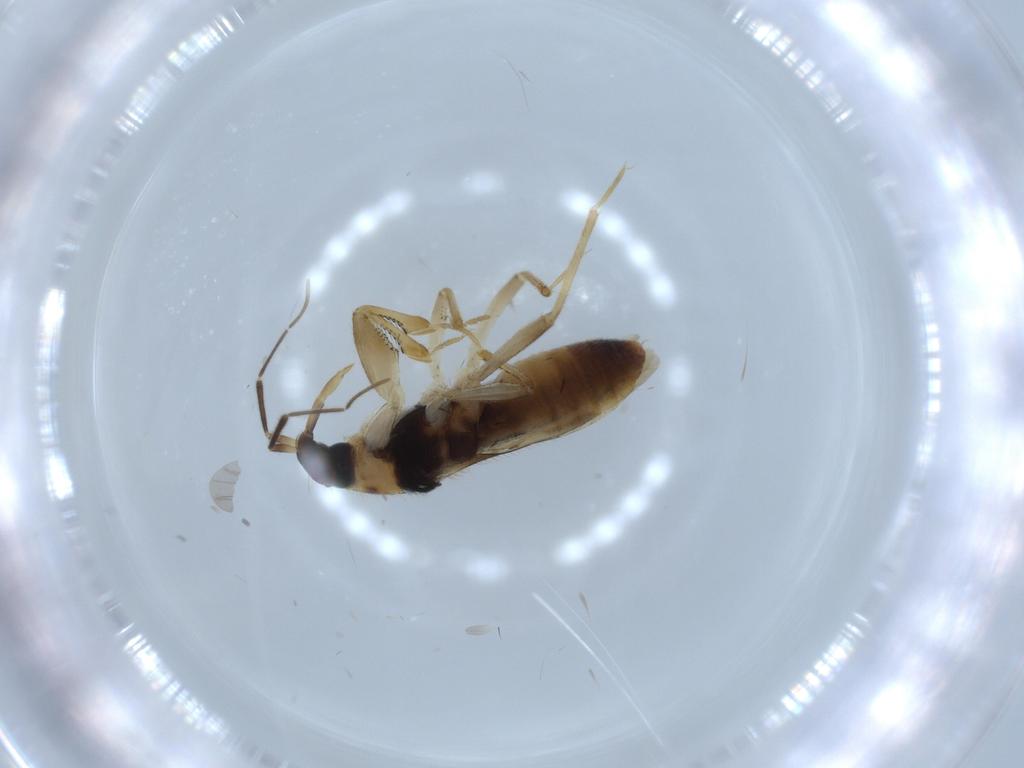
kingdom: Animalia
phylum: Arthropoda
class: Insecta
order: Hemiptera
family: Nabidae
